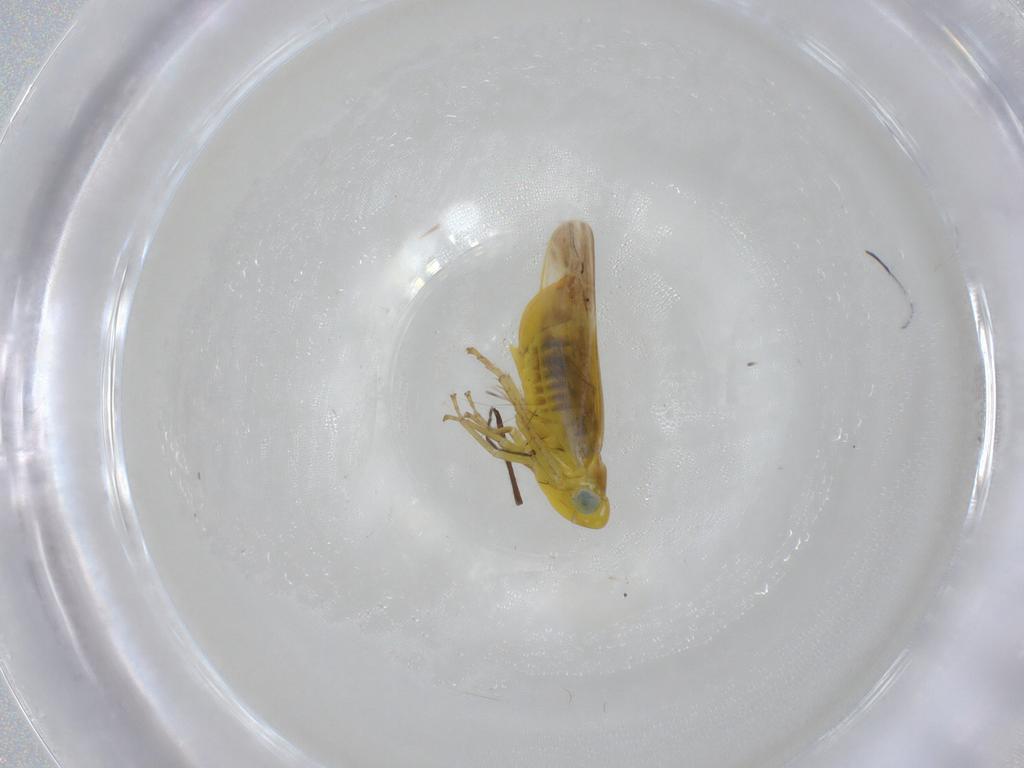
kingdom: Animalia
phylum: Arthropoda
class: Insecta
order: Hemiptera
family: Cicadellidae
